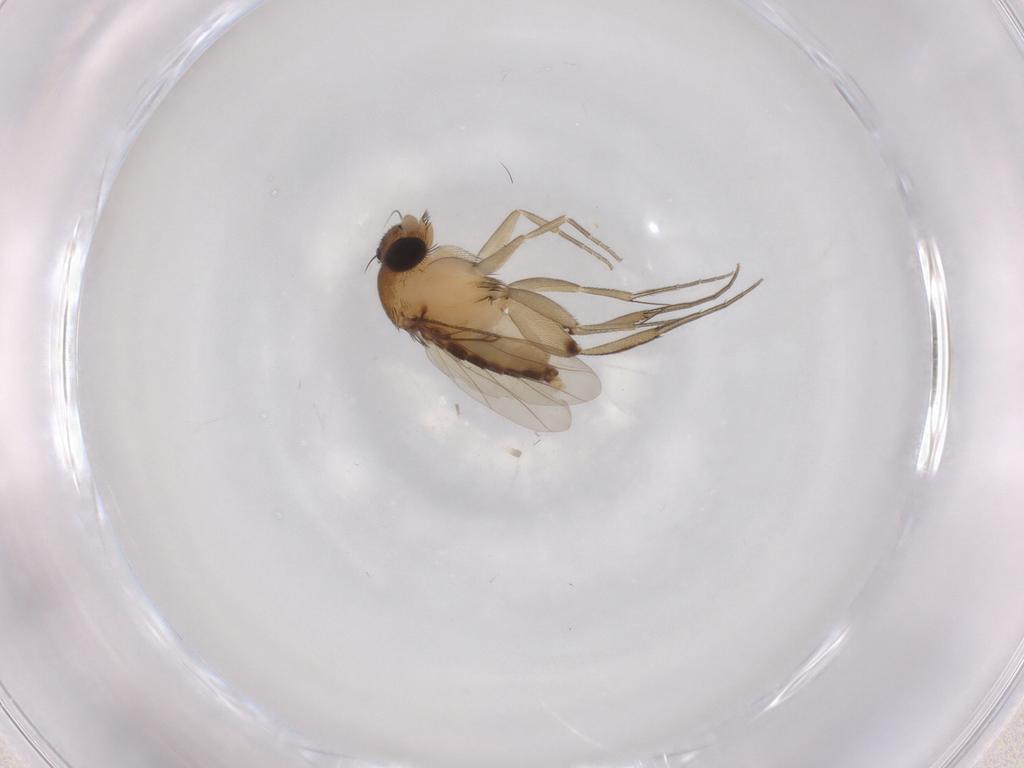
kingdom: Animalia
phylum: Arthropoda
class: Insecta
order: Diptera
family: Phoridae
